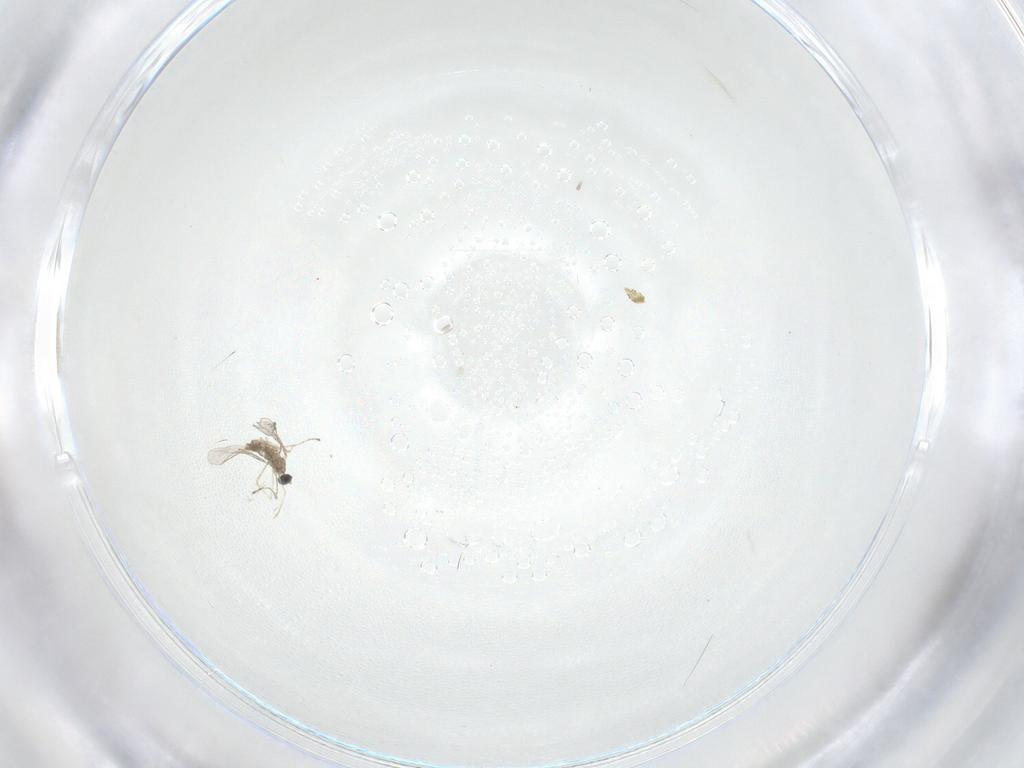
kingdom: Animalia
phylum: Arthropoda
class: Insecta
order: Diptera
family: Cecidomyiidae
